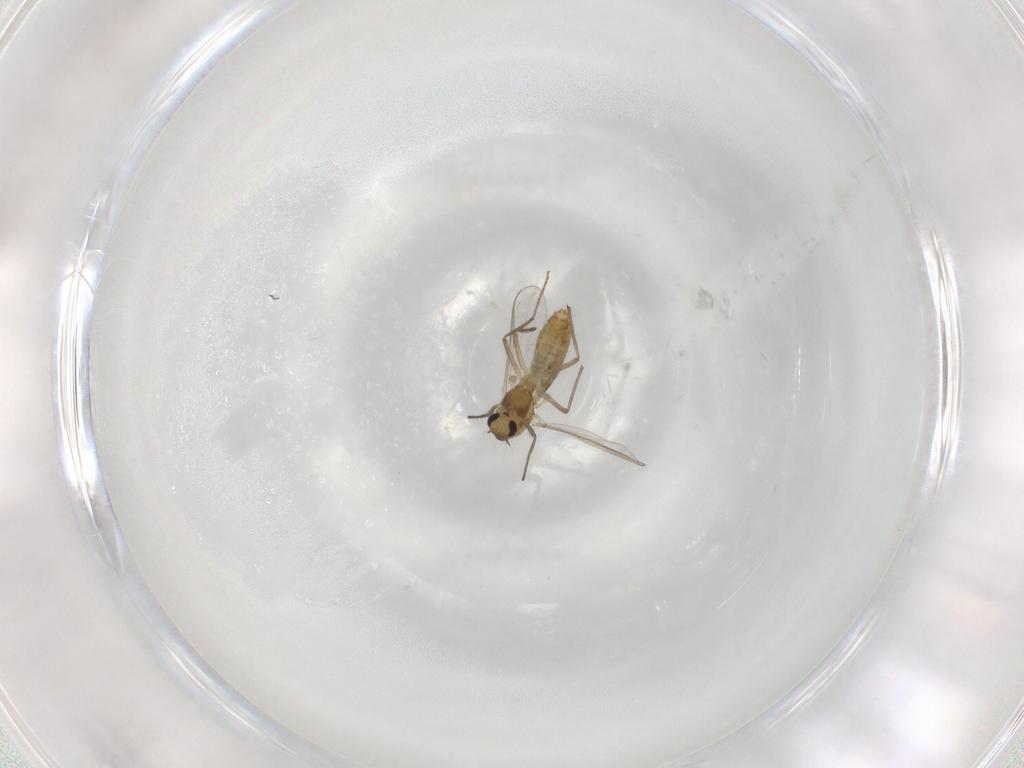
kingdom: Animalia
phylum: Arthropoda
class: Insecta
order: Diptera
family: Chironomidae
